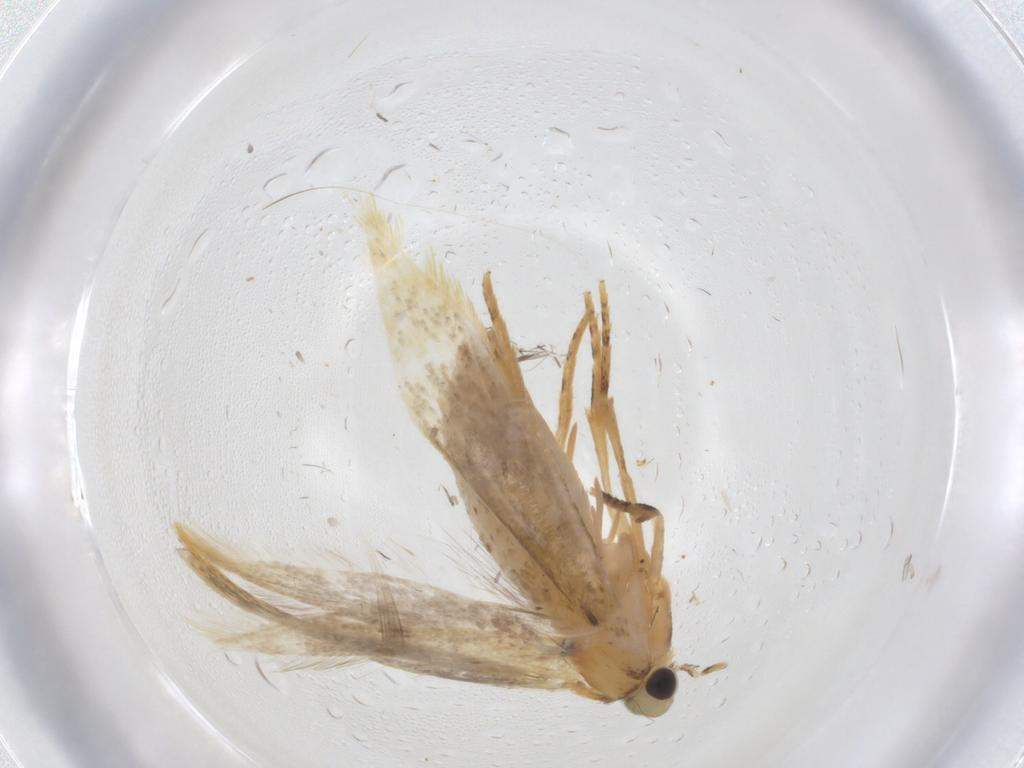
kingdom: Animalia
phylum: Arthropoda
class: Insecta
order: Lepidoptera
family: Tineidae
